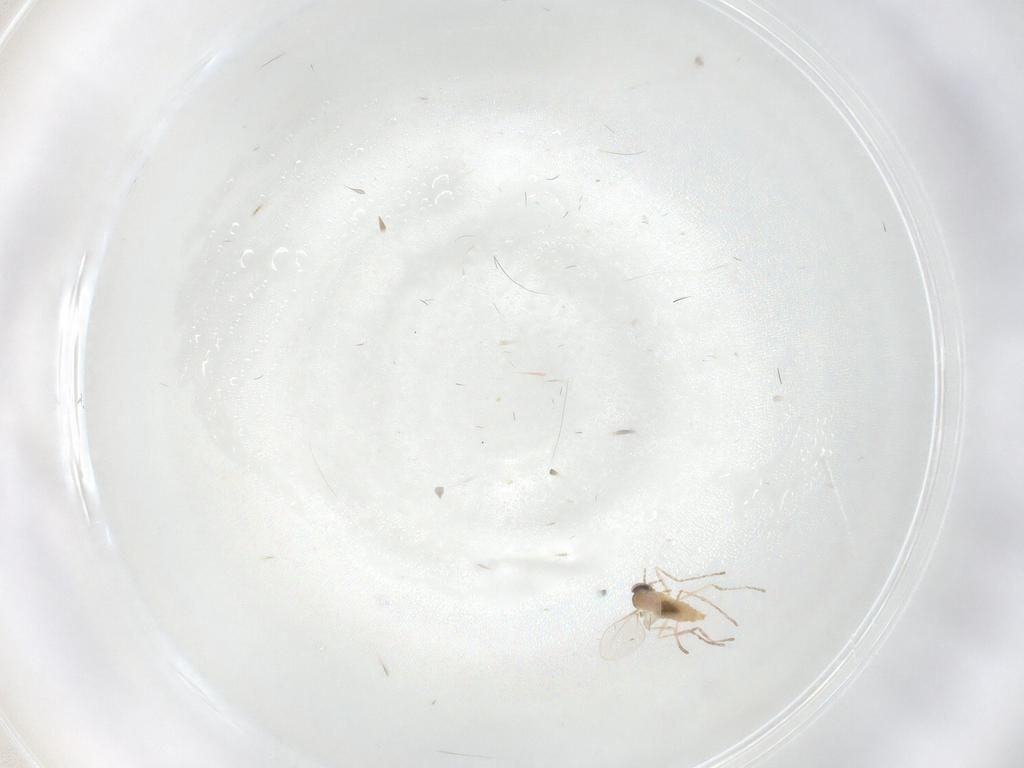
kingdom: Animalia
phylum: Arthropoda
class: Insecta
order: Diptera
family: Cecidomyiidae
